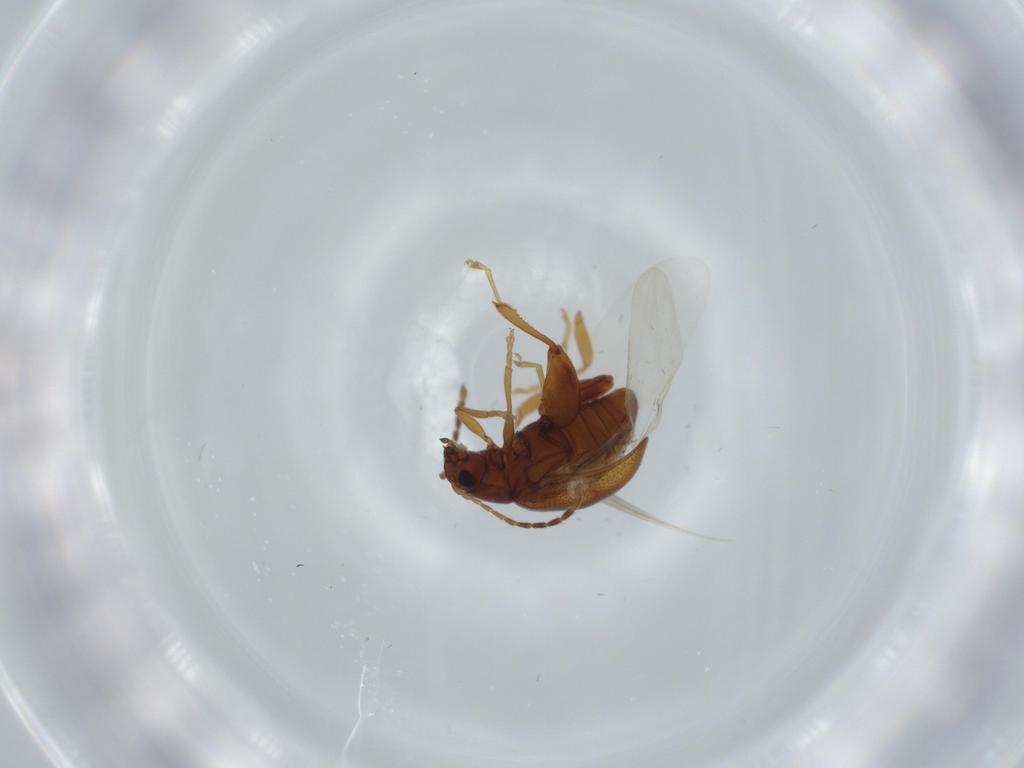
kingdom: Animalia
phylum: Arthropoda
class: Insecta
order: Coleoptera
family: Chrysomelidae
